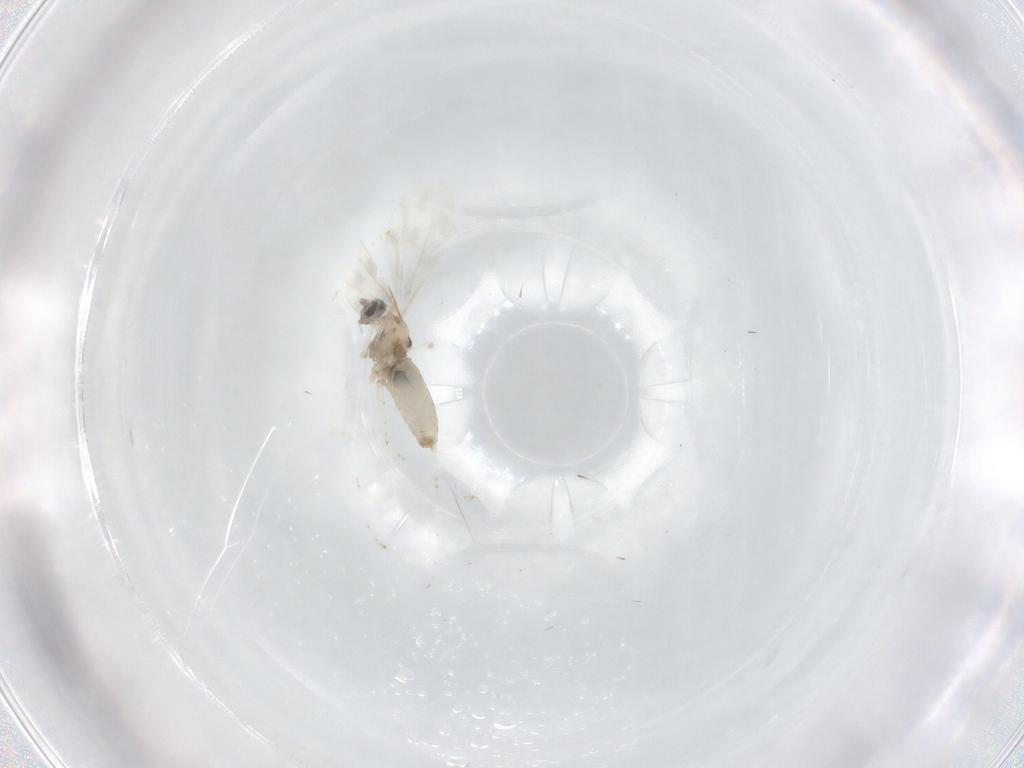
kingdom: Animalia
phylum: Arthropoda
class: Insecta
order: Diptera
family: Cecidomyiidae
